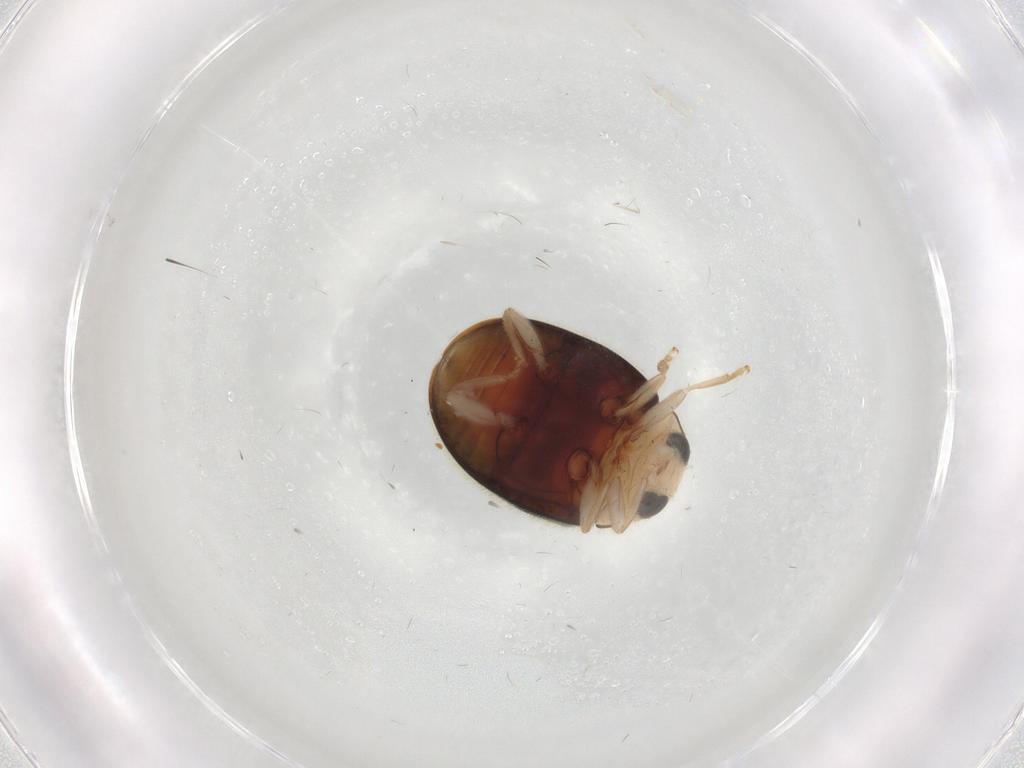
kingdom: Animalia
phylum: Arthropoda
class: Insecta
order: Coleoptera
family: Coccinellidae
